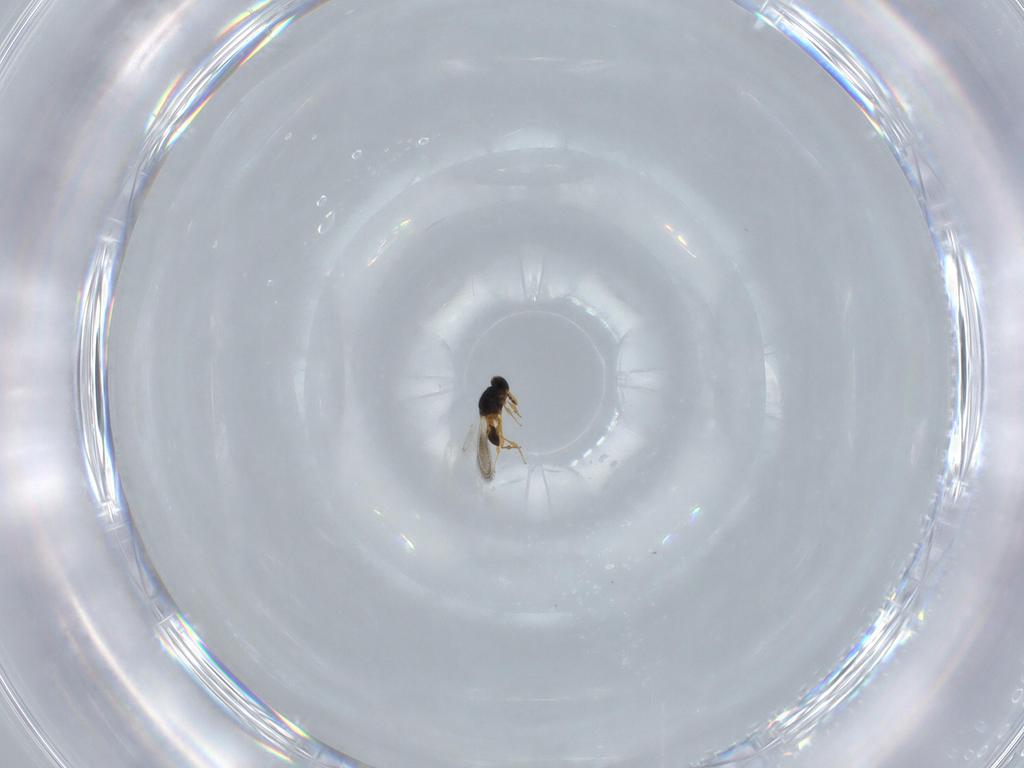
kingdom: Animalia
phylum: Arthropoda
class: Insecta
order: Hymenoptera
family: Platygastridae
